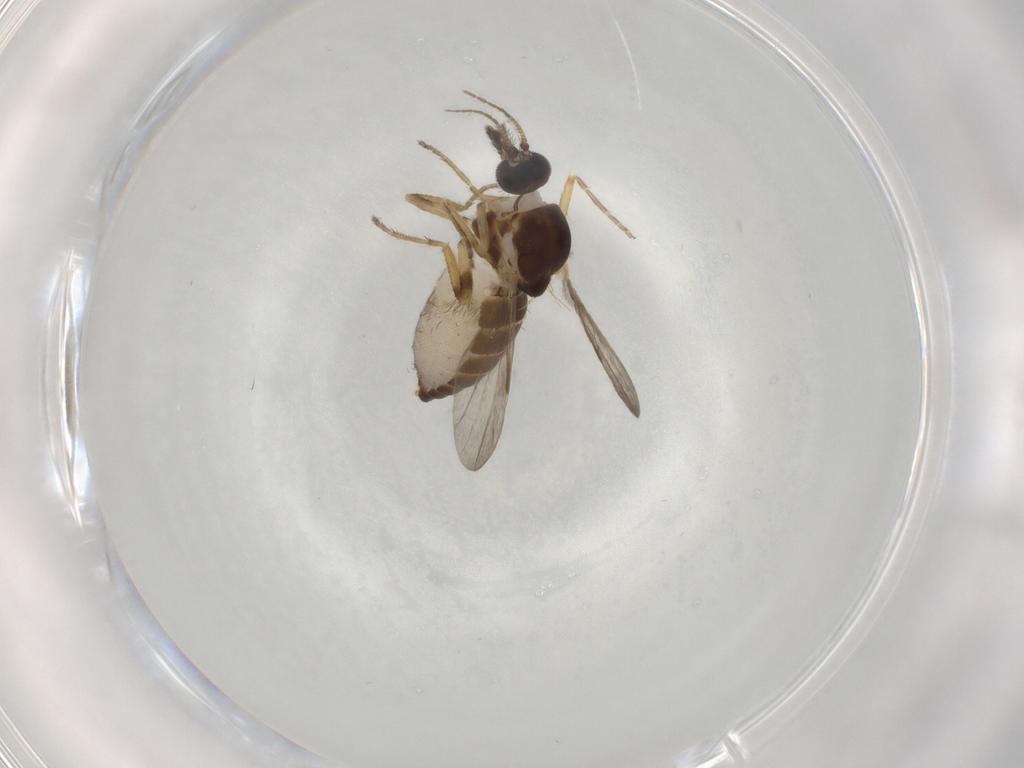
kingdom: Animalia
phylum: Arthropoda
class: Insecta
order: Diptera
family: Ceratopogonidae
